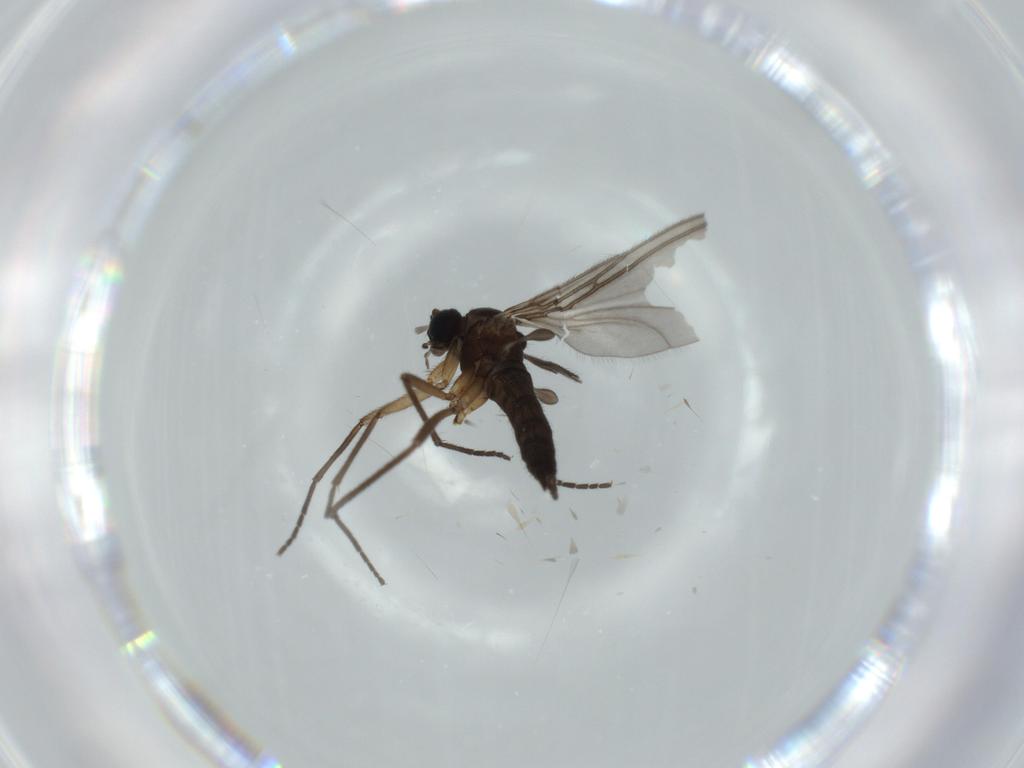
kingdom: Animalia
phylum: Arthropoda
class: Insecta
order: Diptera
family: Sciaridae
